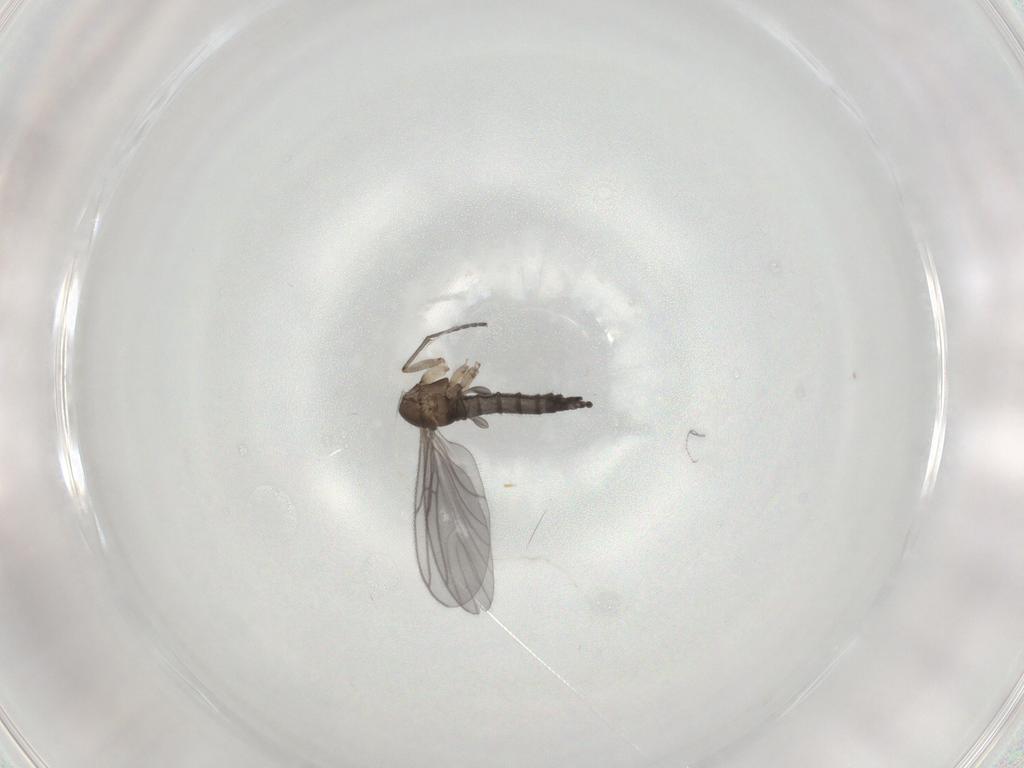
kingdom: Animalia
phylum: Arthropoda
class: Insecta
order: Diptera
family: Sciaridae
